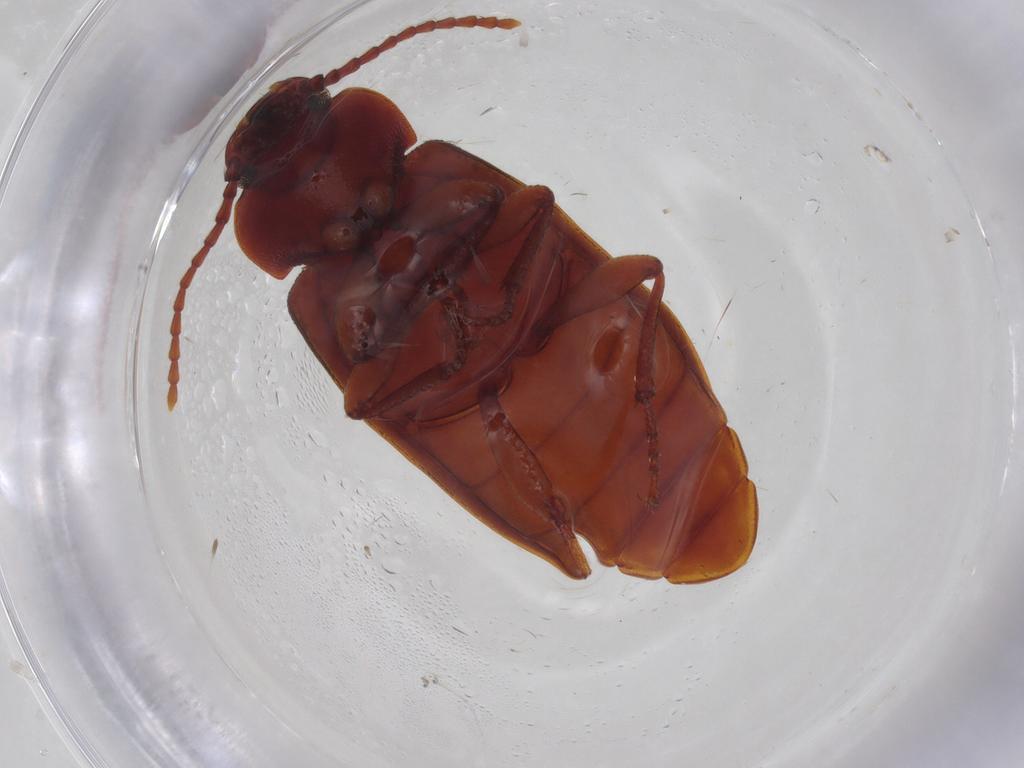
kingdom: Animalia
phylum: Arthropoda
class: Insecta
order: Coleoptera
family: Tenebrionidae
